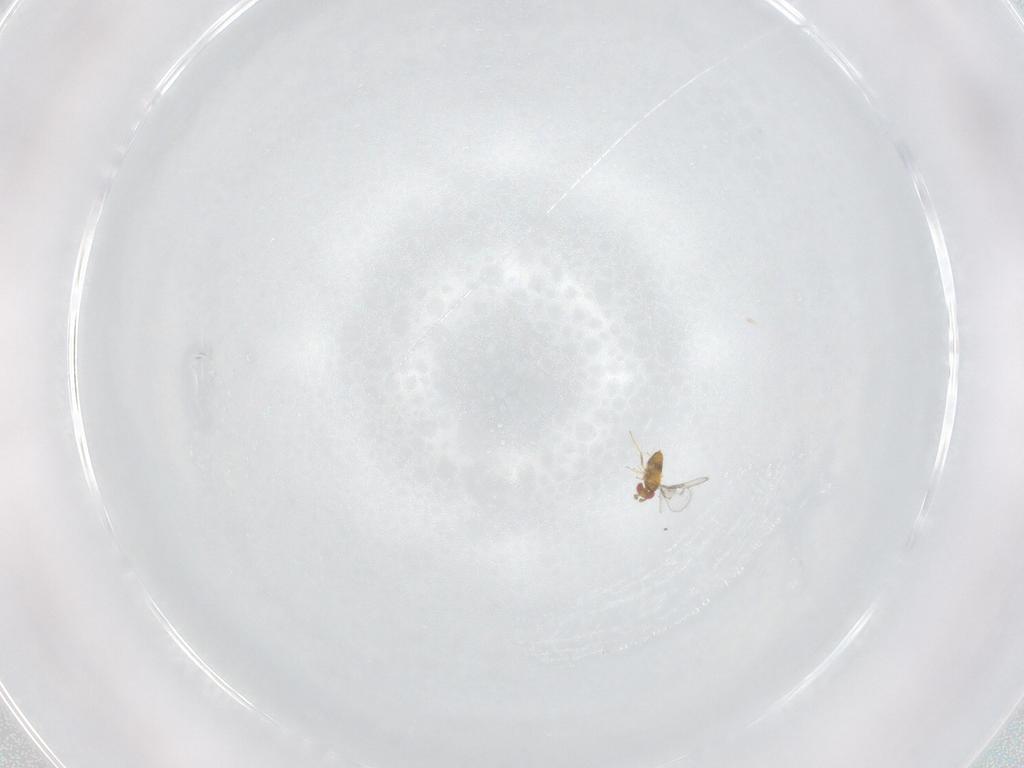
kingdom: Animalia
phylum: Arthropoda
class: Insecta
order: Hymenoptera
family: Trichogrammatidae
